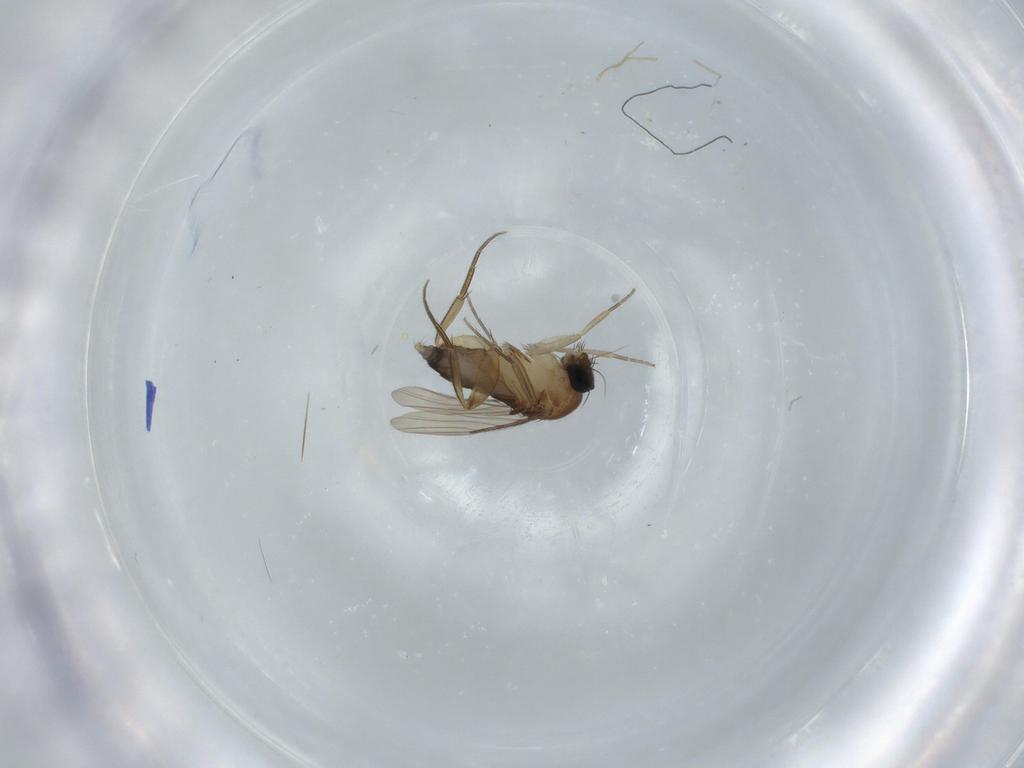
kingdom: Animalia
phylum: Arthropoda
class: Insecta
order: Diptera
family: Phoridae
